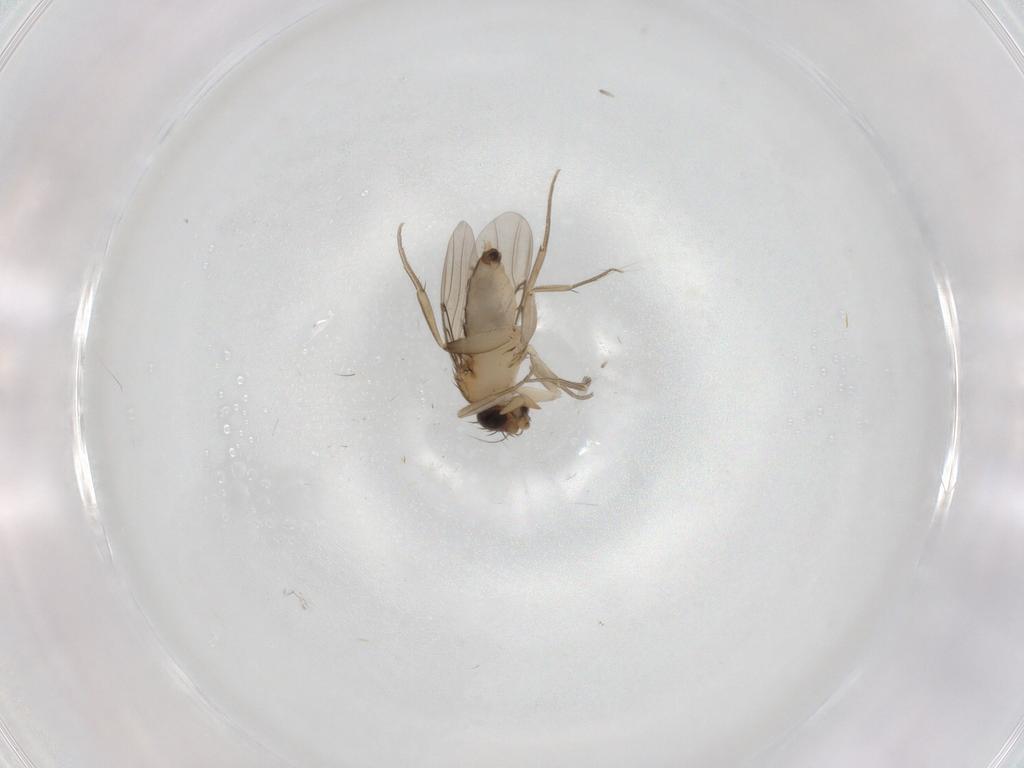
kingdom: Animalia
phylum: Arthropoda
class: Insecta
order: Diptera
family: Phoridae
